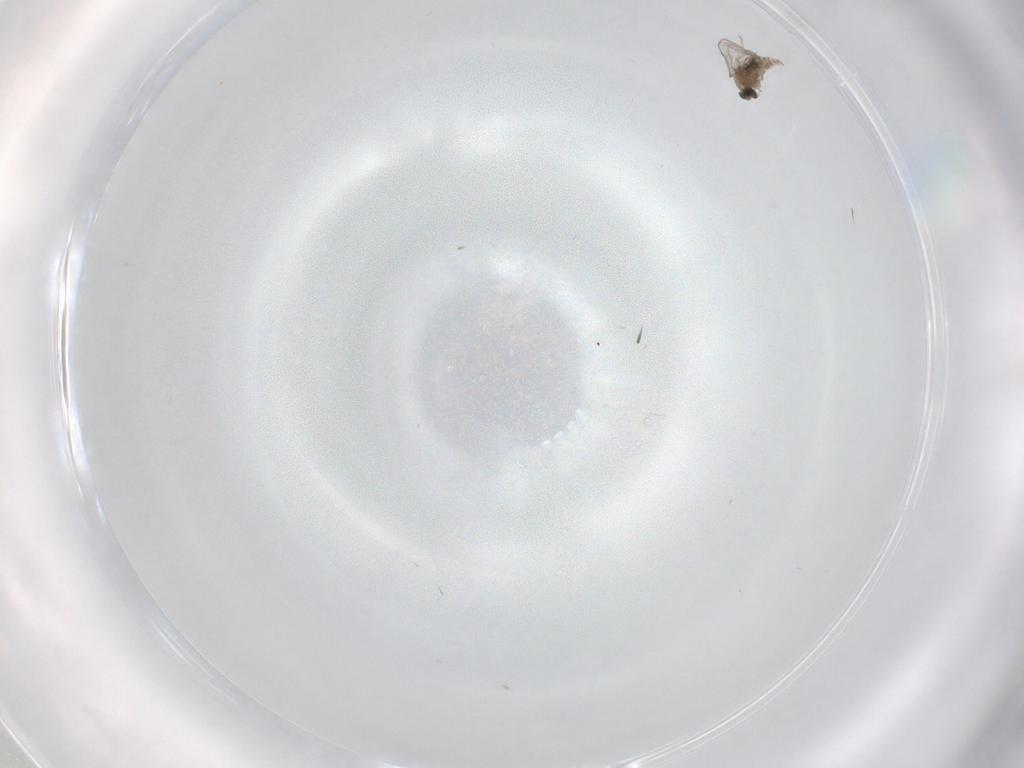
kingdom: Animalia
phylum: Arthropoda
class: Insecta
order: Diptera
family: Cecidomyiidae
